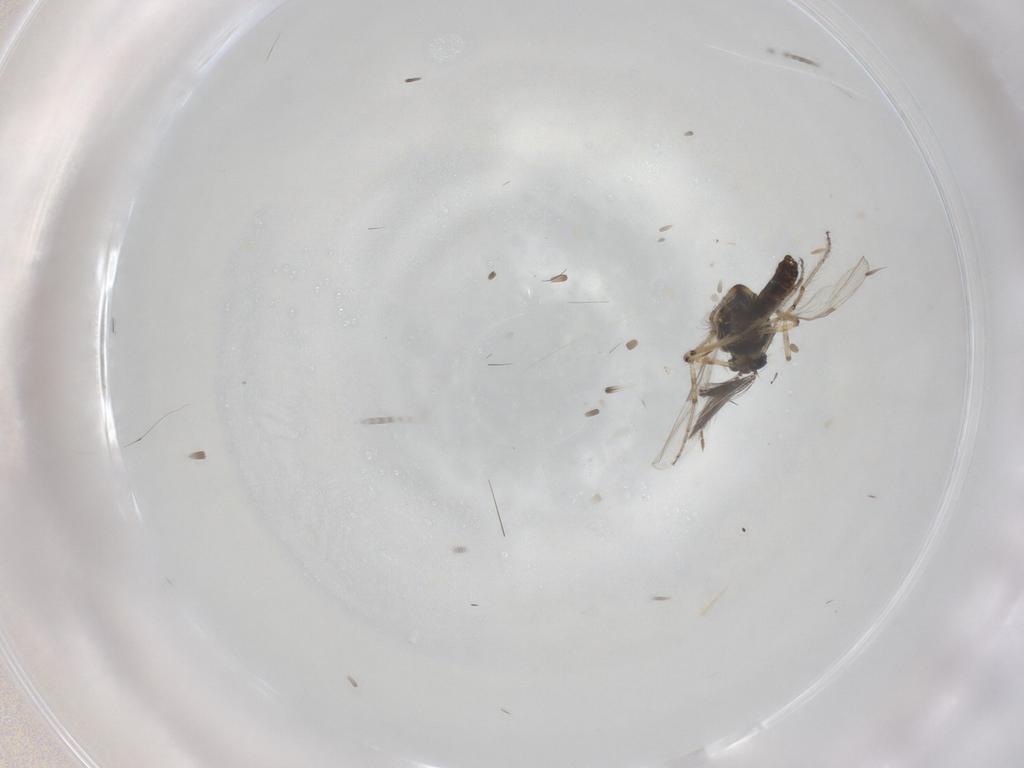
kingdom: Animalia
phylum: Arthropoda
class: Insecta
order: Diptera
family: Ceratopogonidae
